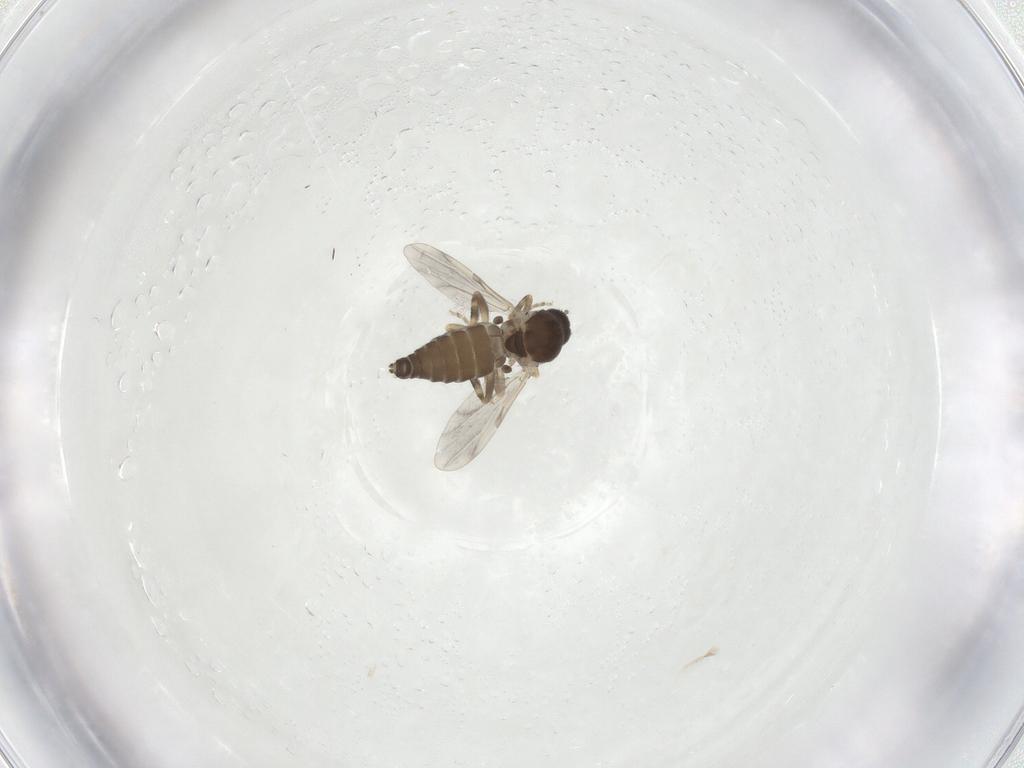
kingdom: Animalia
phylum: Arthropoda
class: Insecta
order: Diptera
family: Ceratopogonidae
